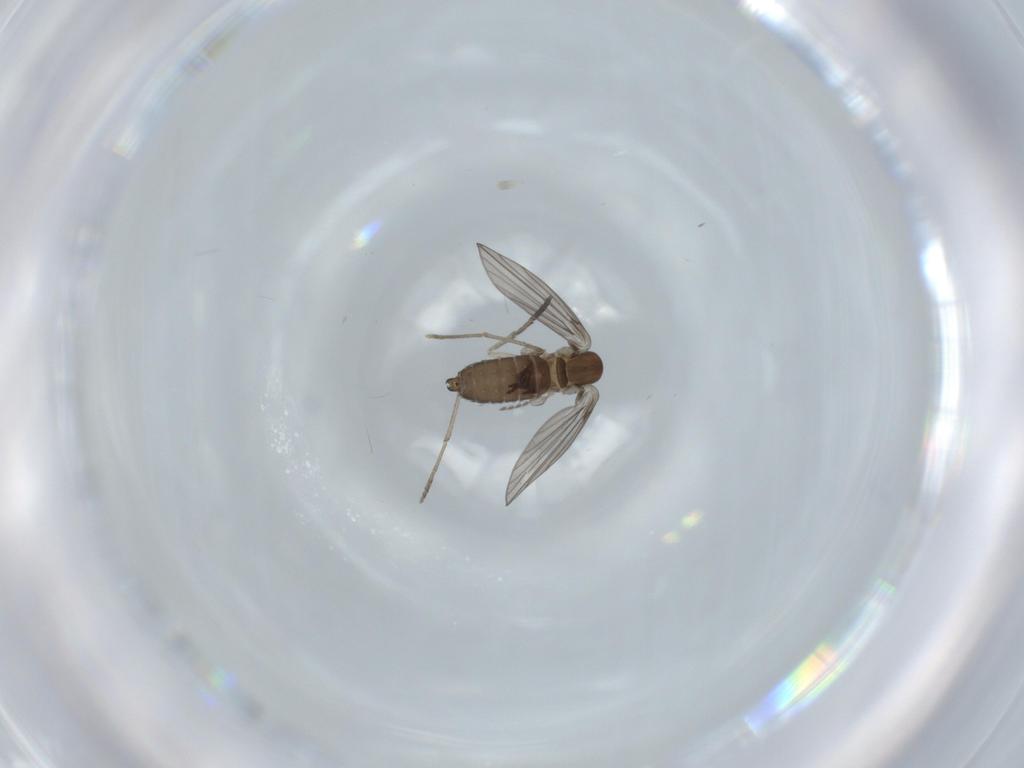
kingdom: Animalia
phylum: Arthropoda
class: Insecta
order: Diptera
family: Psychodidae
